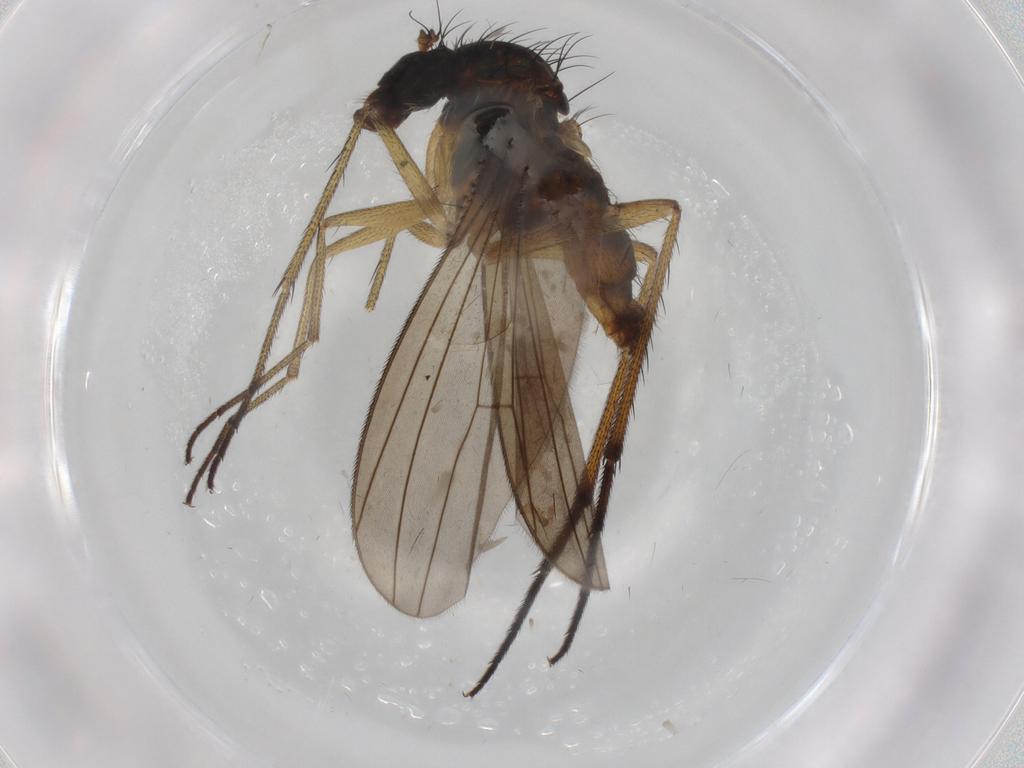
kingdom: Animalia
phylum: Arthropoda
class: Insecta
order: Diptera
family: Dolichopodidae
